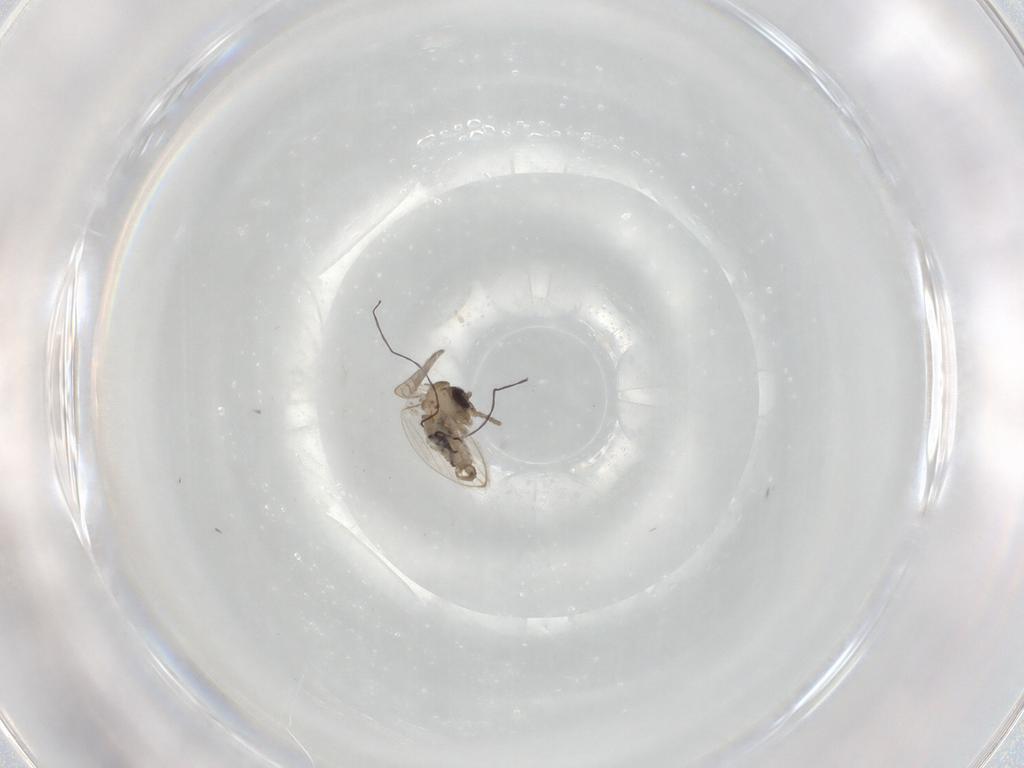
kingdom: Animalia
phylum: Arthropoda
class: Insecta
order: Diptera
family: Psychodidae
